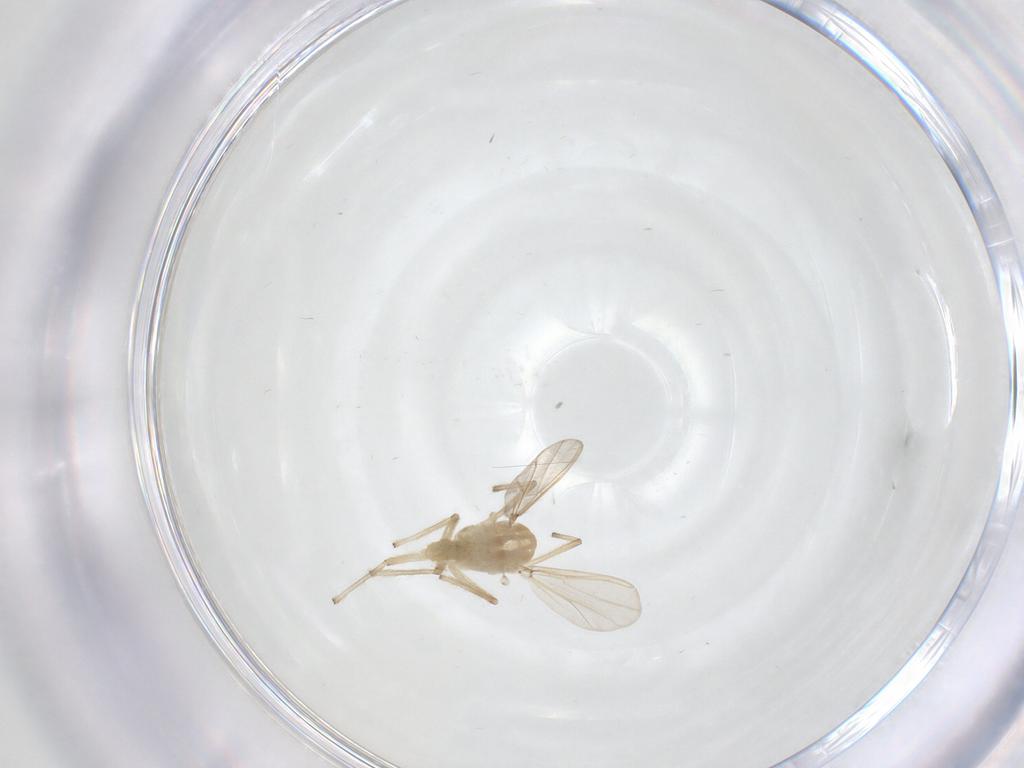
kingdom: Animalia
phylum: Arthropoda
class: Insecta
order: Diptera
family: Chironomidae
